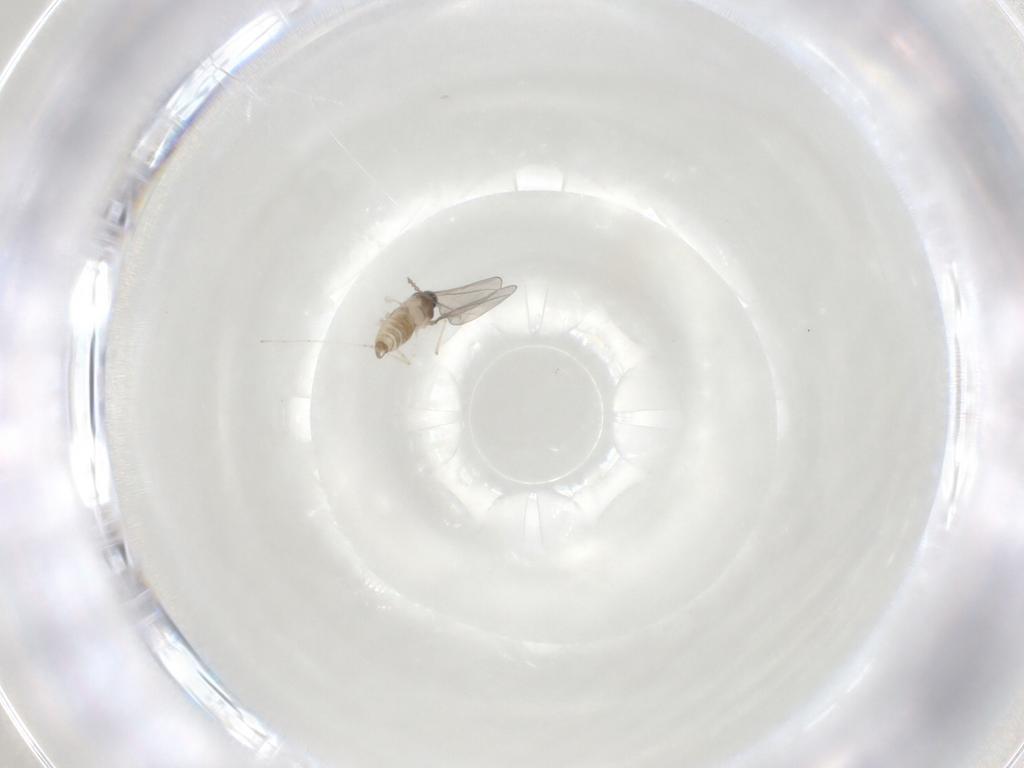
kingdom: Animalia
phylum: Arthropoda
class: Insecta
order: Diptera
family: Cecidomyiidae
